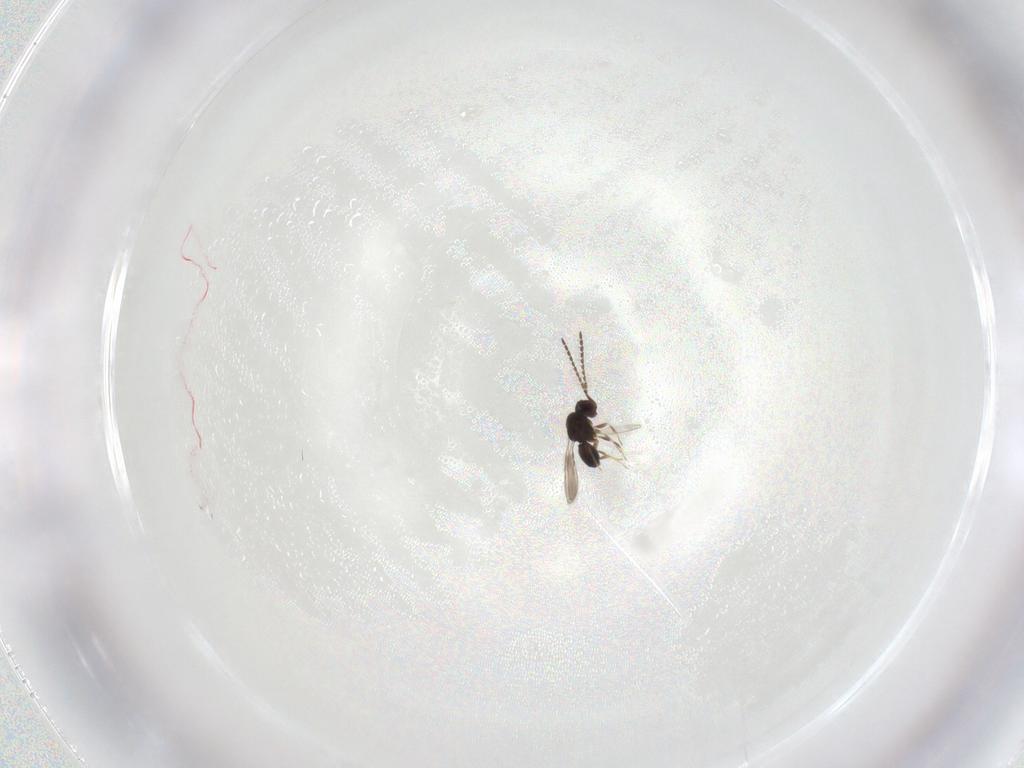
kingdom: Animalia
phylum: Arthropoda
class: Insecta
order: Hymenoptera
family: Ceraphronidae
